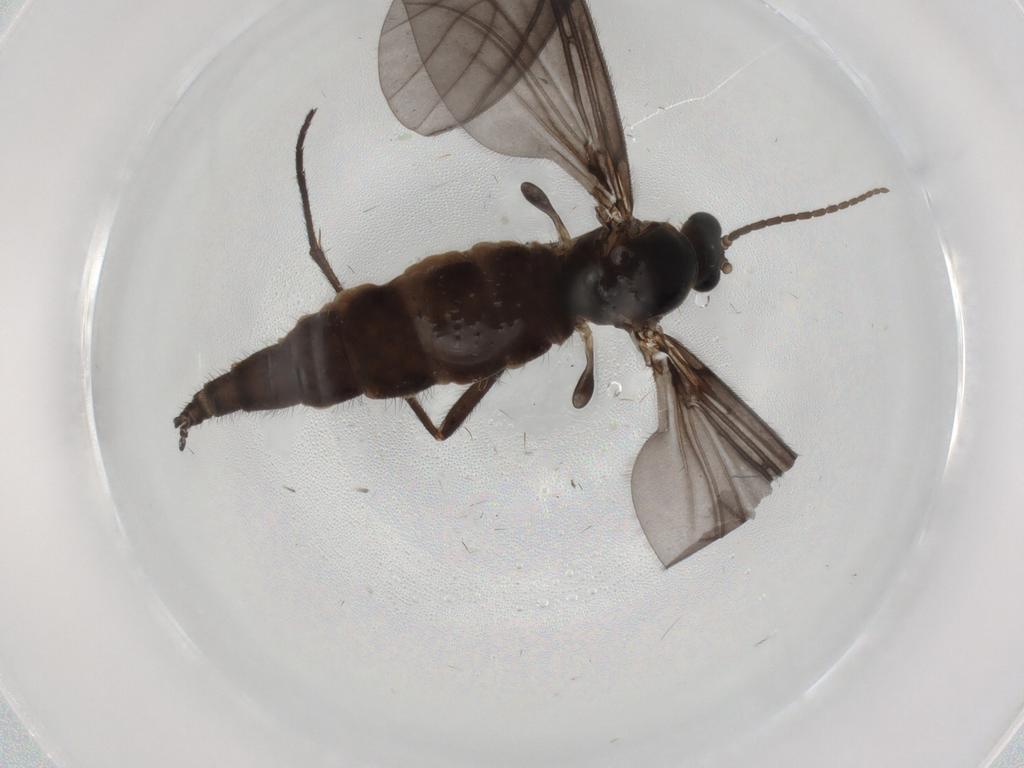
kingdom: Animalia
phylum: Arthropoda
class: Insecta
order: Diptera
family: Sciaridae
